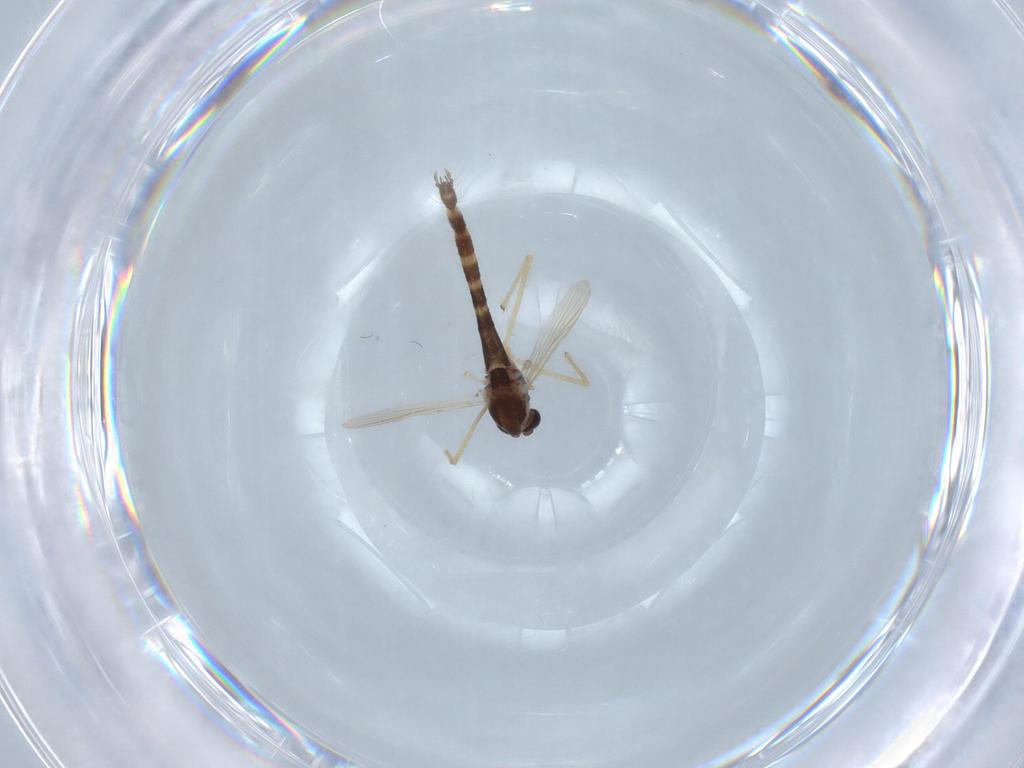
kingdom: Animalia
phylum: Arthropoda
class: Insecta
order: Diptera
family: Chironomidae
